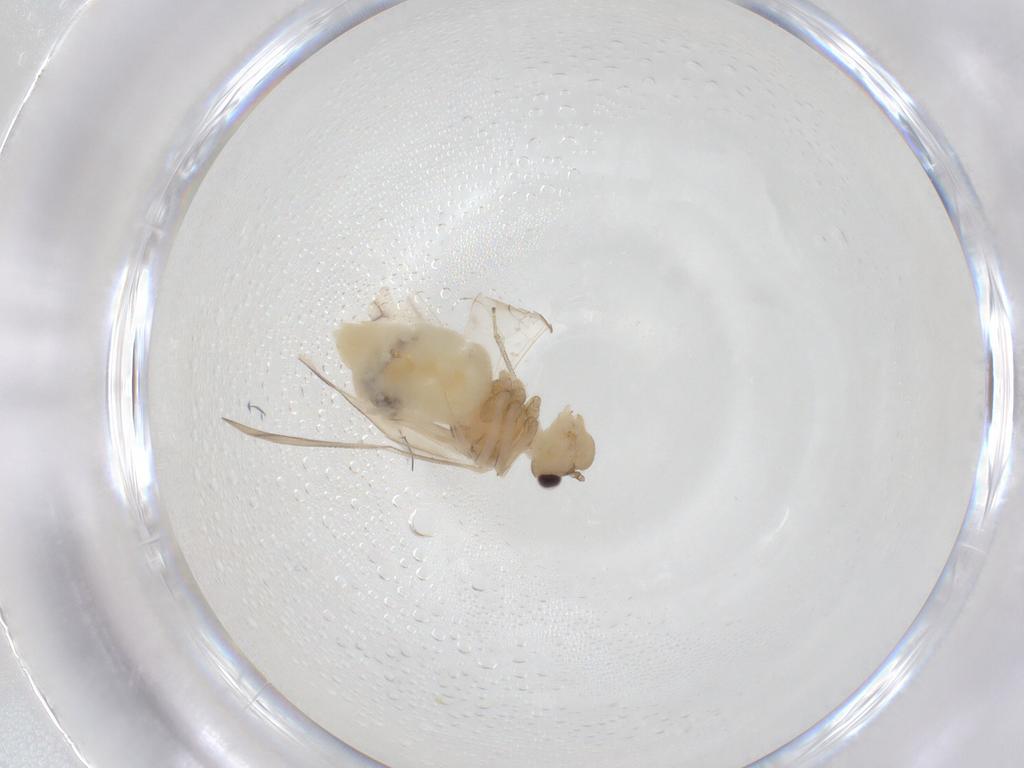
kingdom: Animalia
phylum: Arthropoda
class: Insecta
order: Psocodea
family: Caeciliusidae
